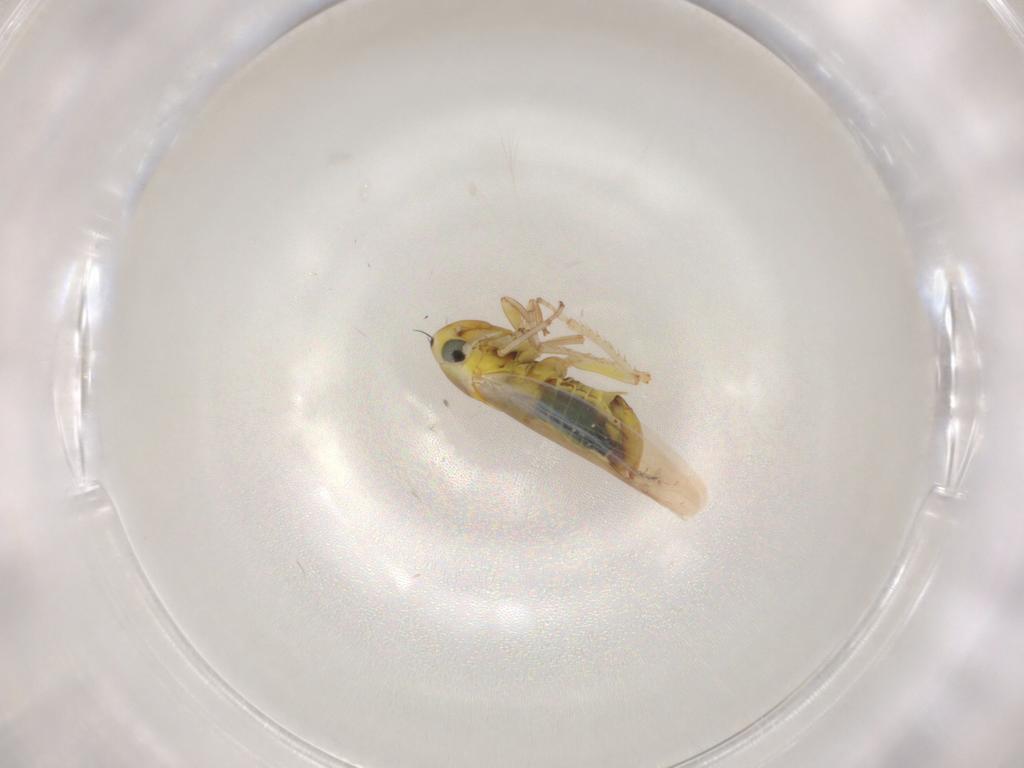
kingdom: Animalia
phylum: Arthropoda
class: Insecta
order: Hemiptera
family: Cicadellidae
